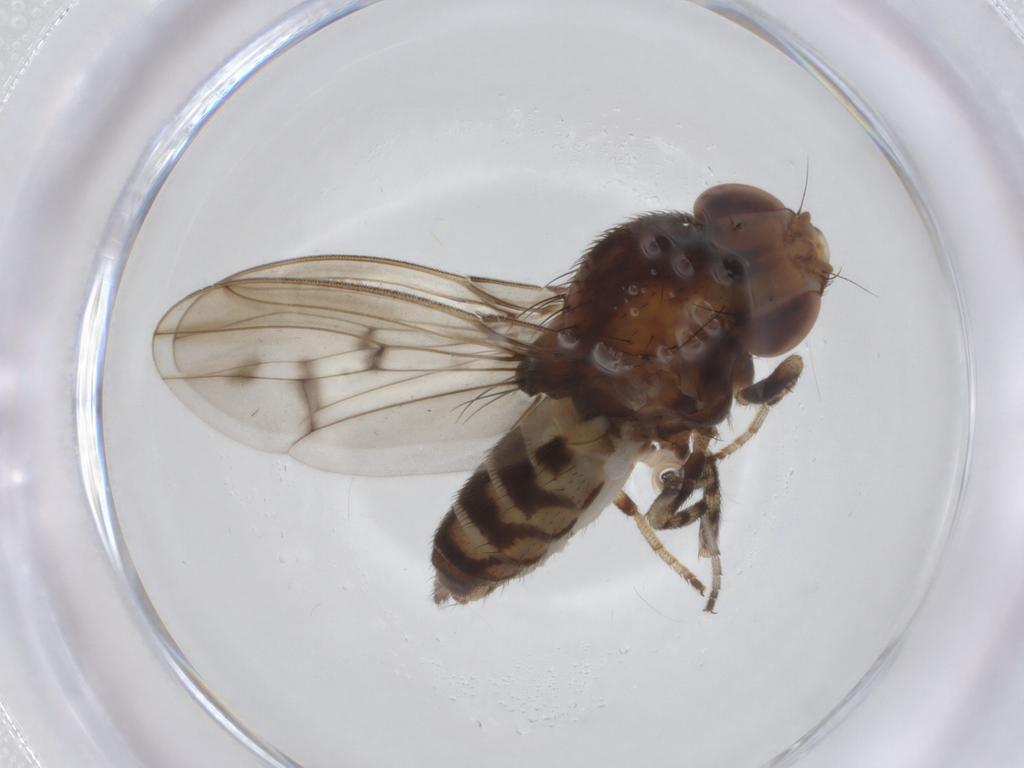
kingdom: Animalia
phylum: Arthropoda
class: Insecta
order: Diptera
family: Drosophilidae
